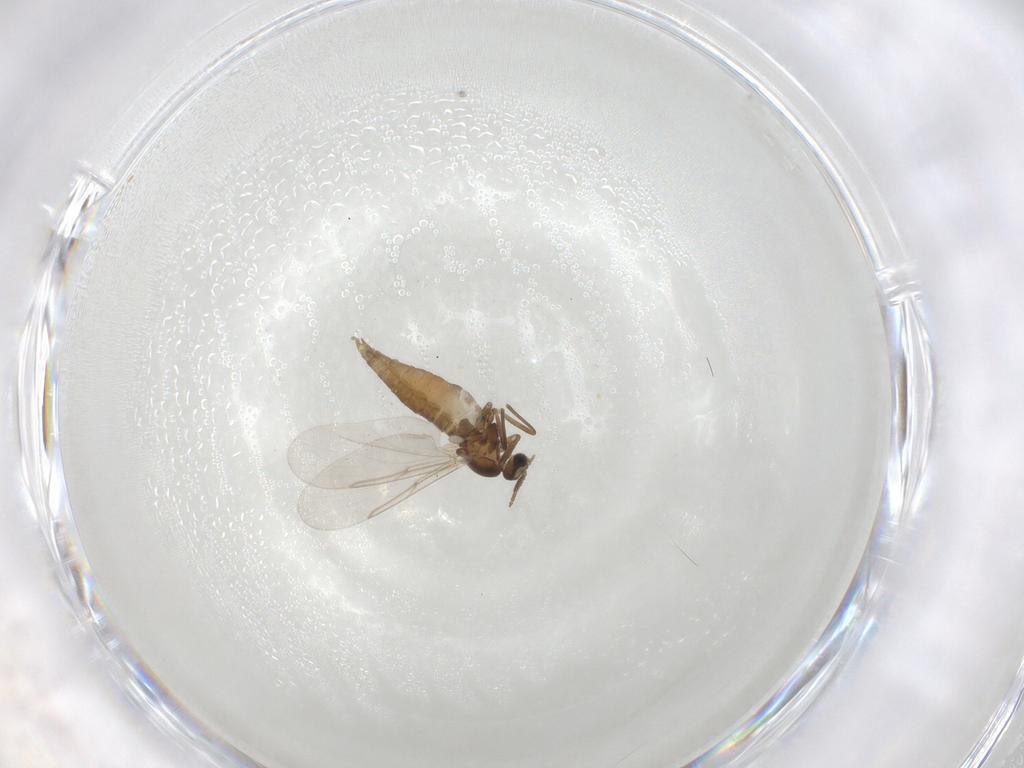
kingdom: Animalia
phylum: Arthropoda
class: Insecta
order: Diptera
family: Cecidomyiidae
